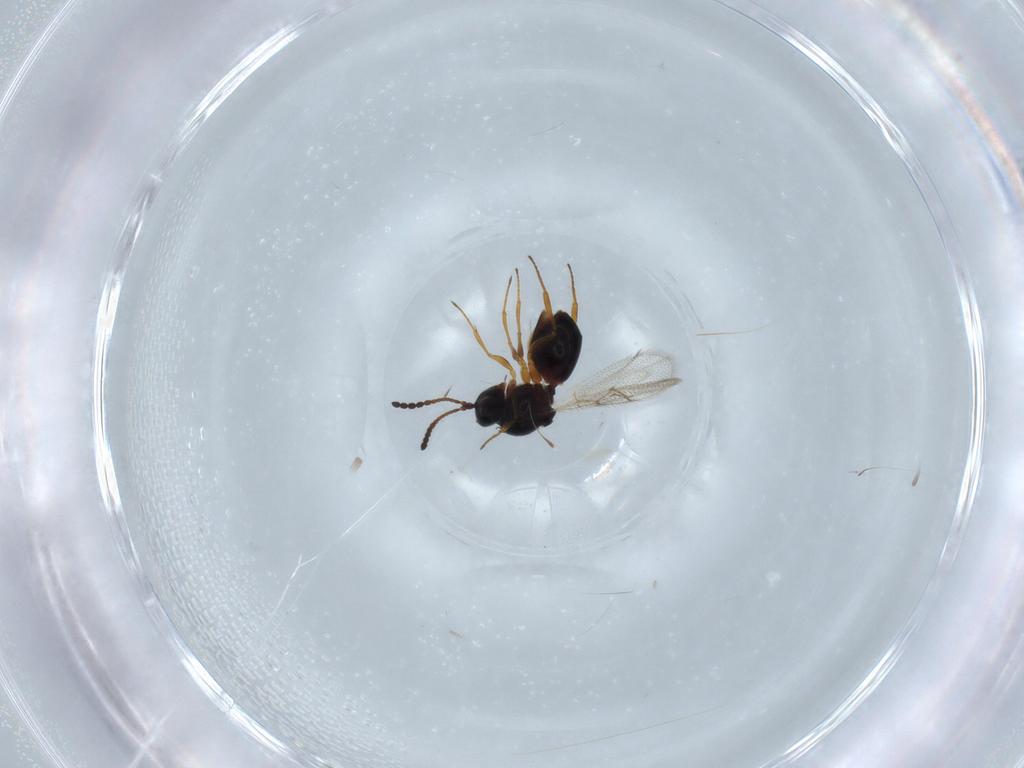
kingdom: Animalia
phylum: Arthropoda
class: Insecta
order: Hymenoptera
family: Figitidae
